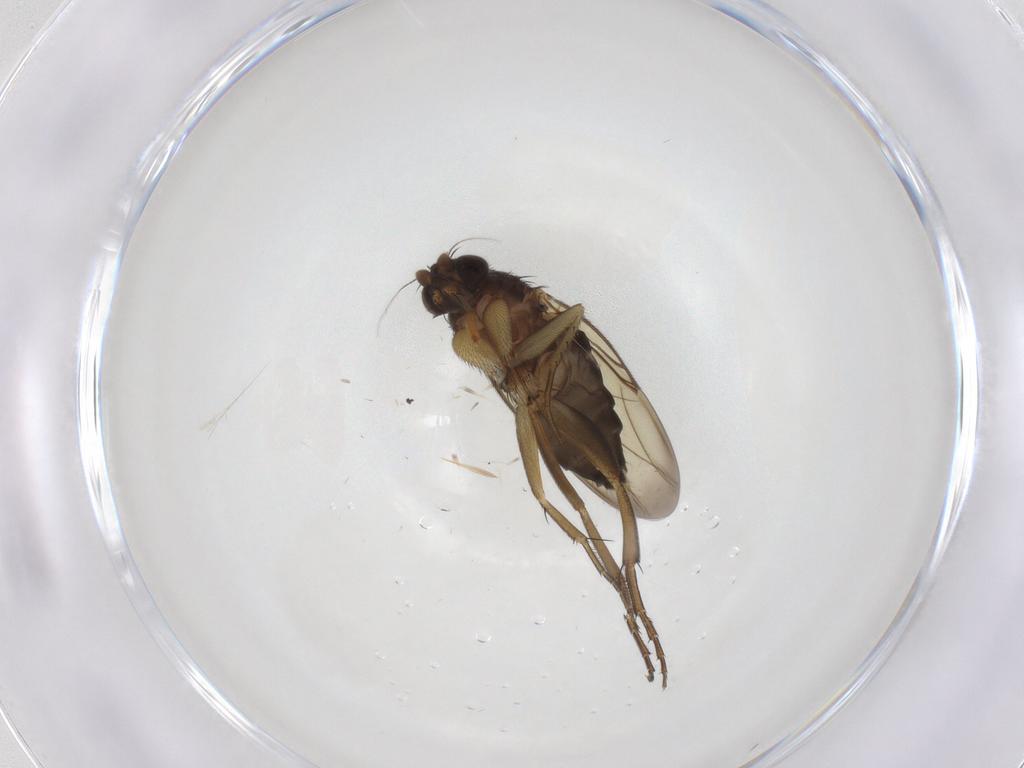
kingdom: Animalia
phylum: Arthropoda
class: Insecta
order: Diptera
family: Phoridae
